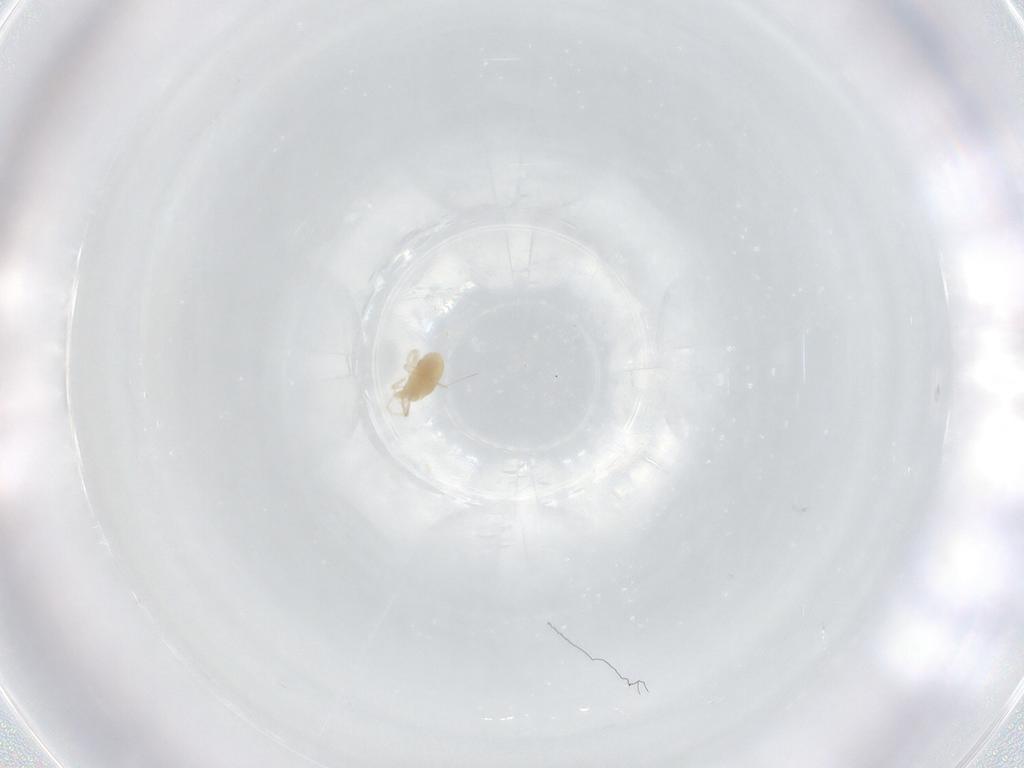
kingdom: Animalia
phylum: Arthropoda
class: Arachnida
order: Trombidiformes
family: Eupodidae
